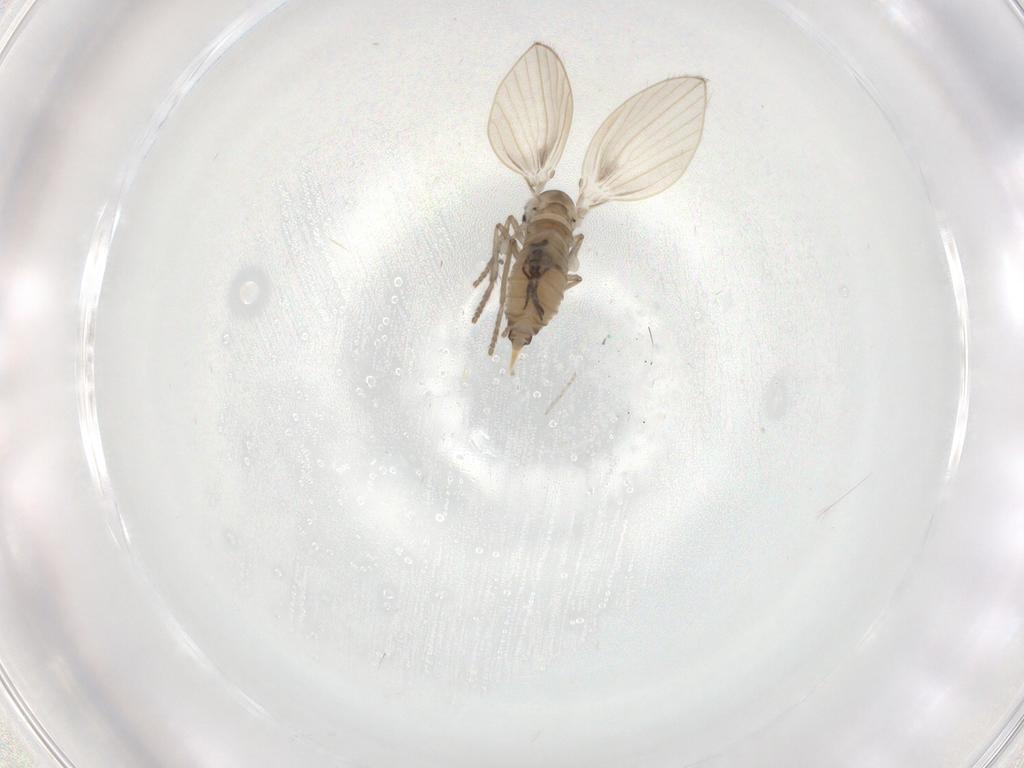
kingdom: Animalia
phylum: Arthropoda
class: Insecta
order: Diptera
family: Psychodidae
